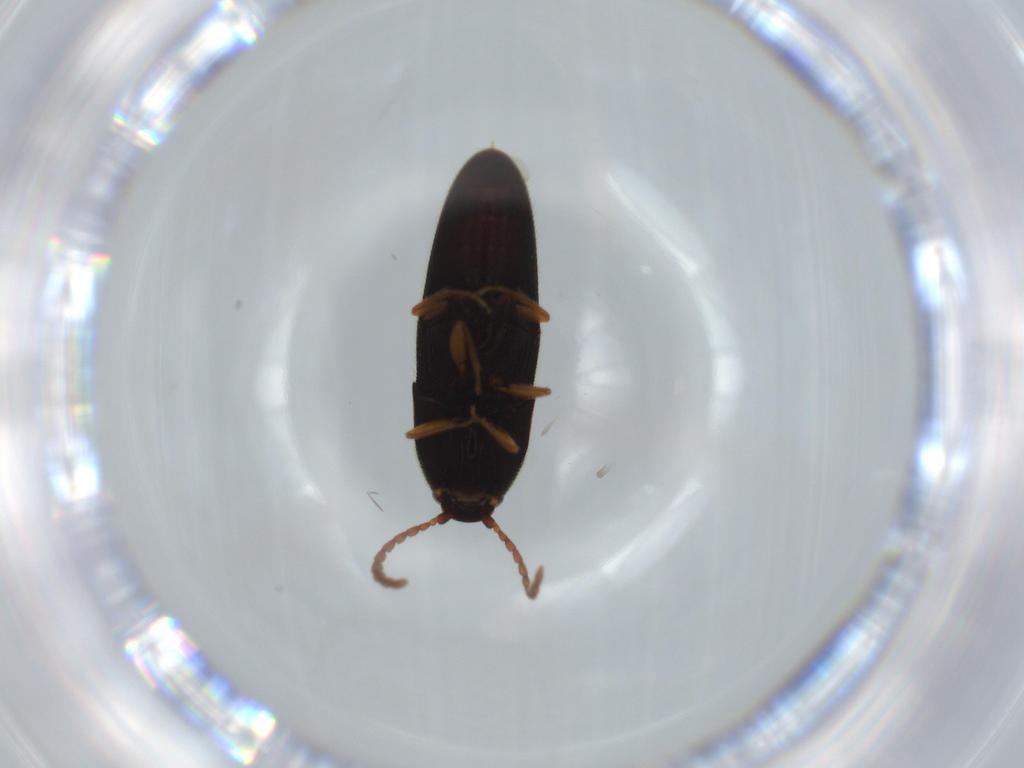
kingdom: Animalia
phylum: Arthropoda
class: Insecta
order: Coleoptera
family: Elateridae
